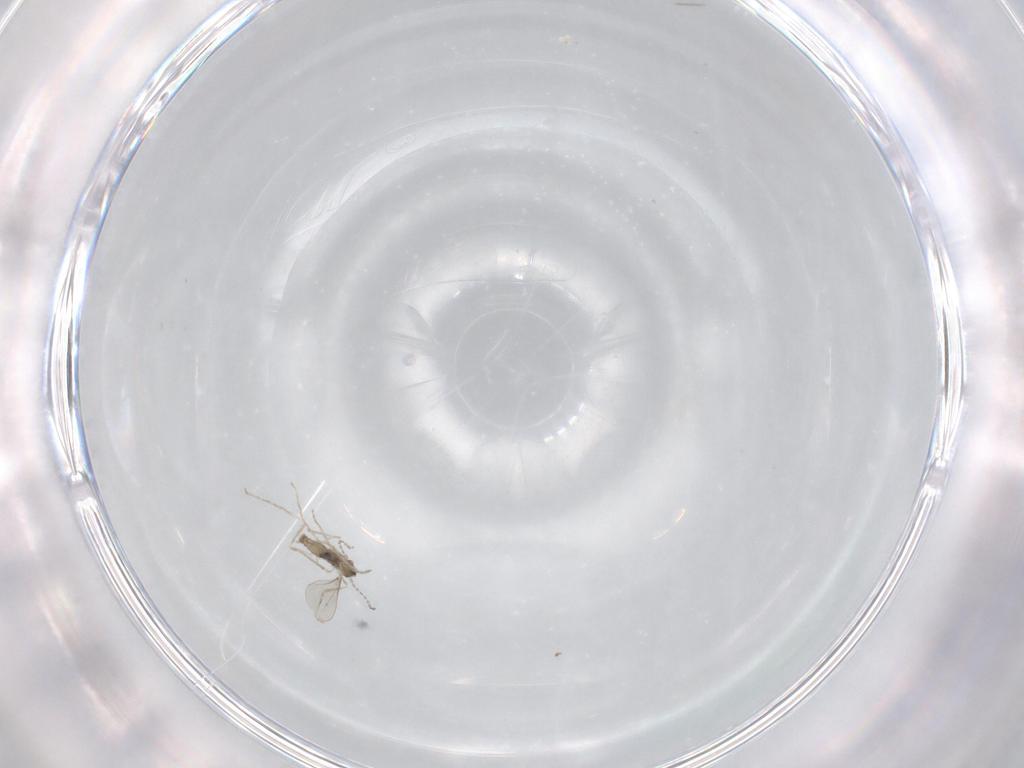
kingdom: Animalia
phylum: Arthropoda
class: Insecta
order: Diptera
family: Cecidomyiidae
